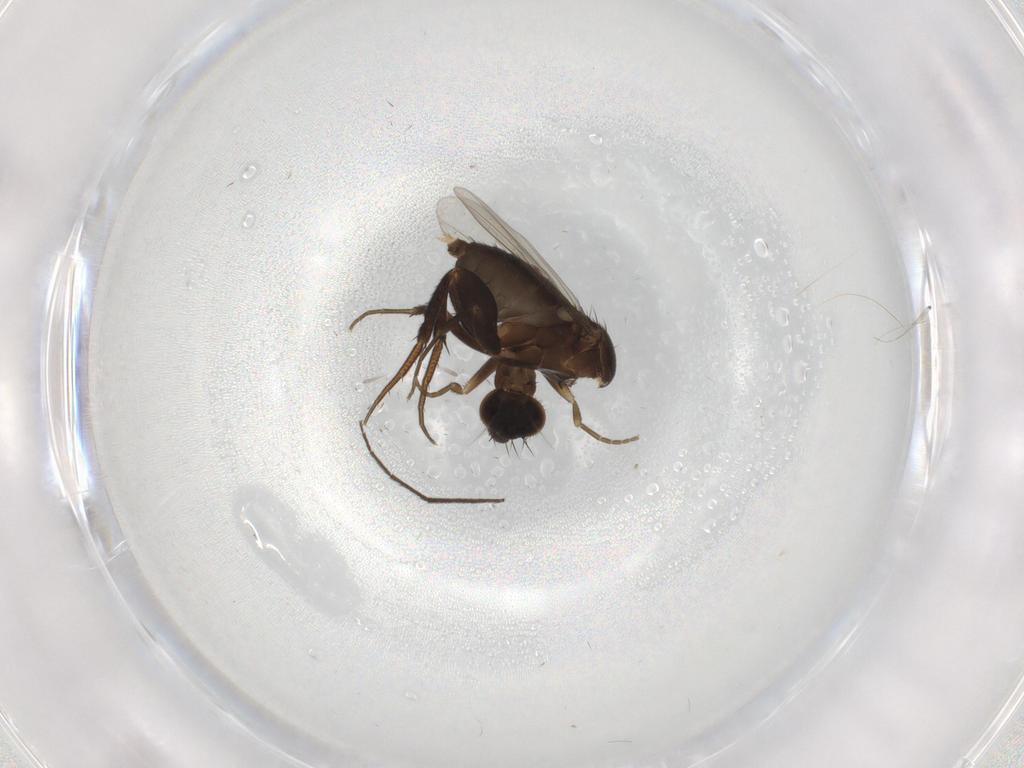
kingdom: Animalia
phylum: Arthropoda
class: Insecta
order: Diptera
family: Phoridae
